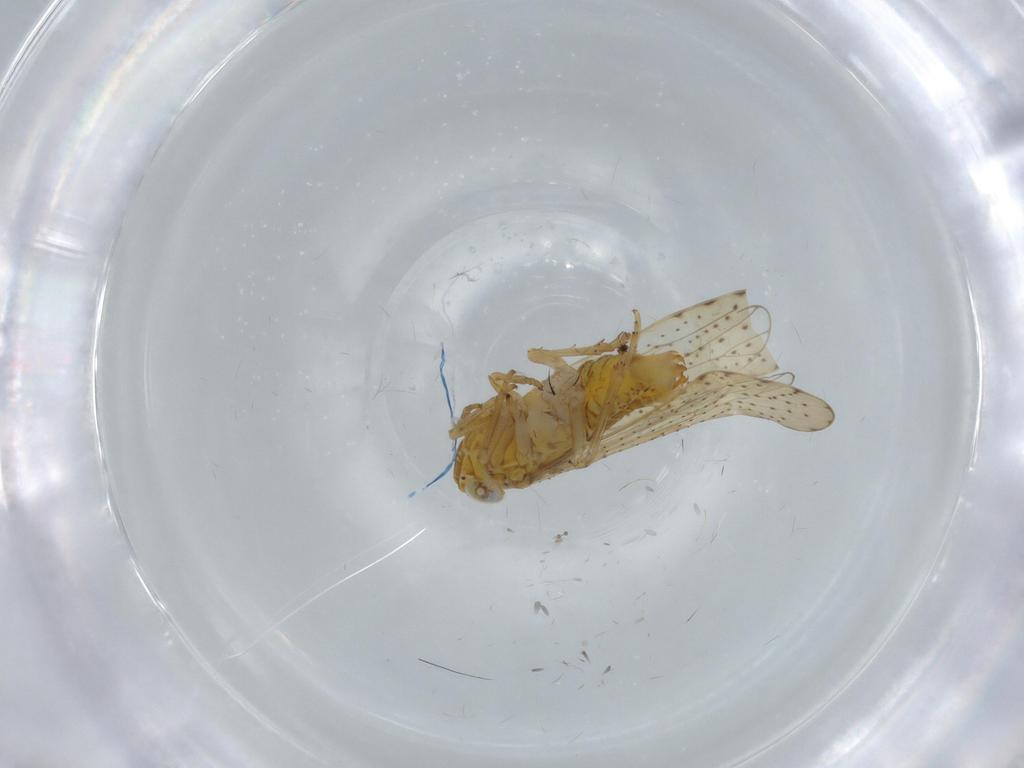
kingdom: Animalia
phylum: Arthropoda
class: Insecta
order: Hemiptera
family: Delphacidae
